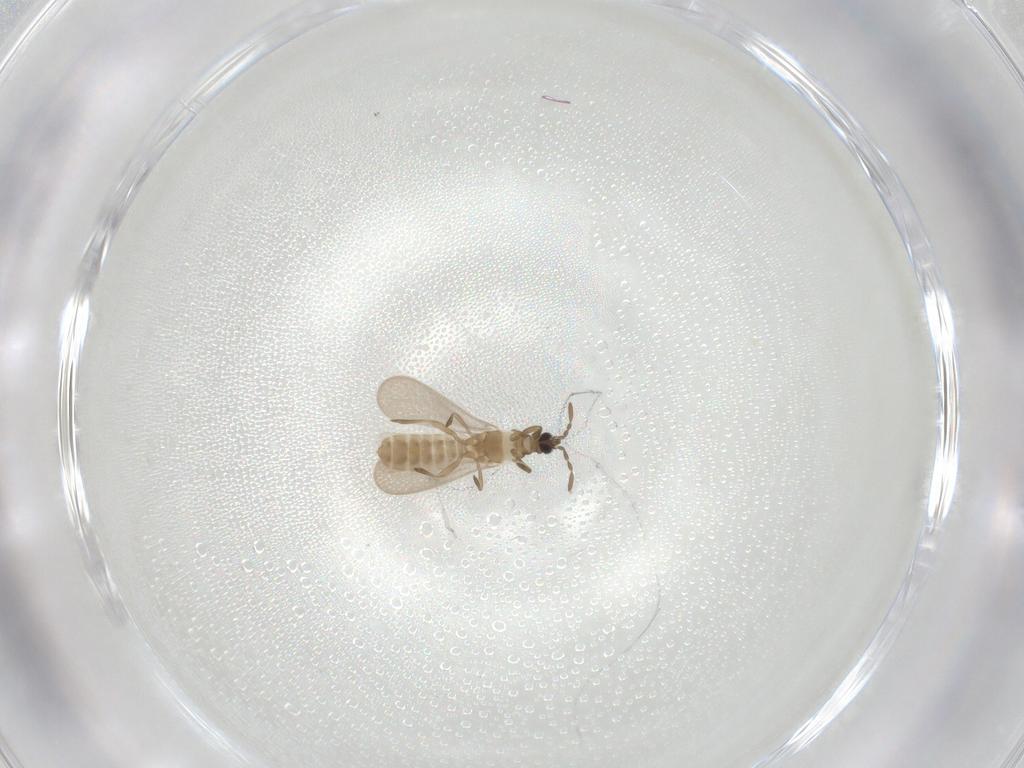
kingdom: Animalia
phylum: Arthropoda
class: Insecta
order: Hemiptera
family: Enicocephalidae
